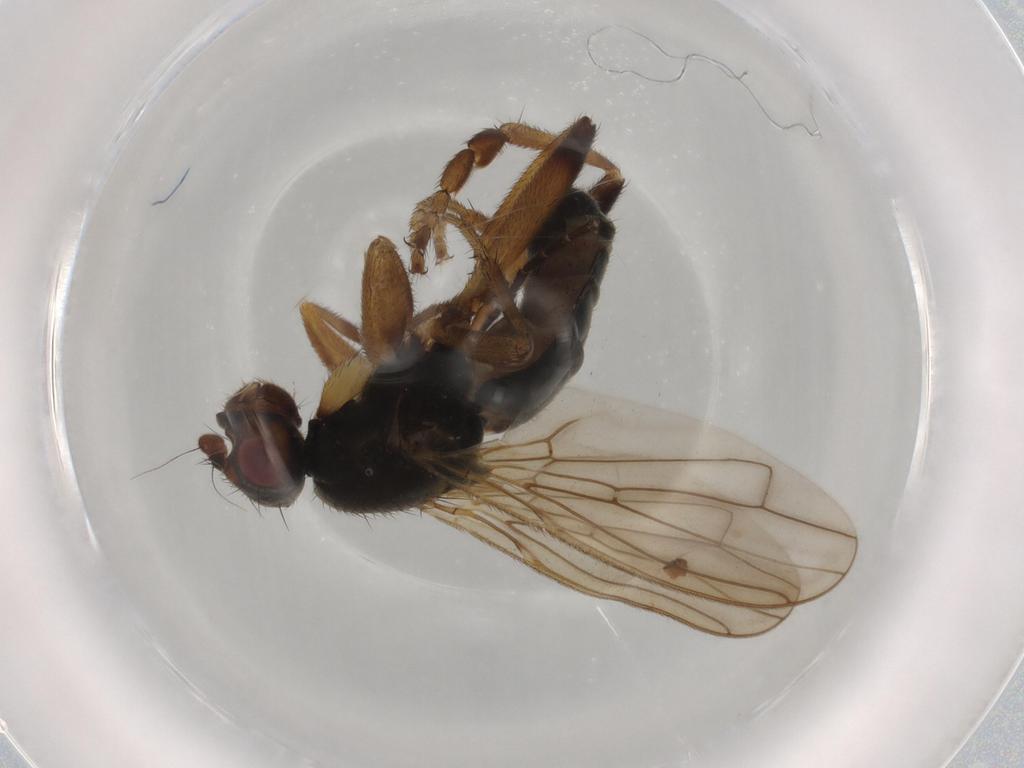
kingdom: Animalia
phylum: Arthropoda
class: Insecta
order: Diptera
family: Sphaeroceridae
